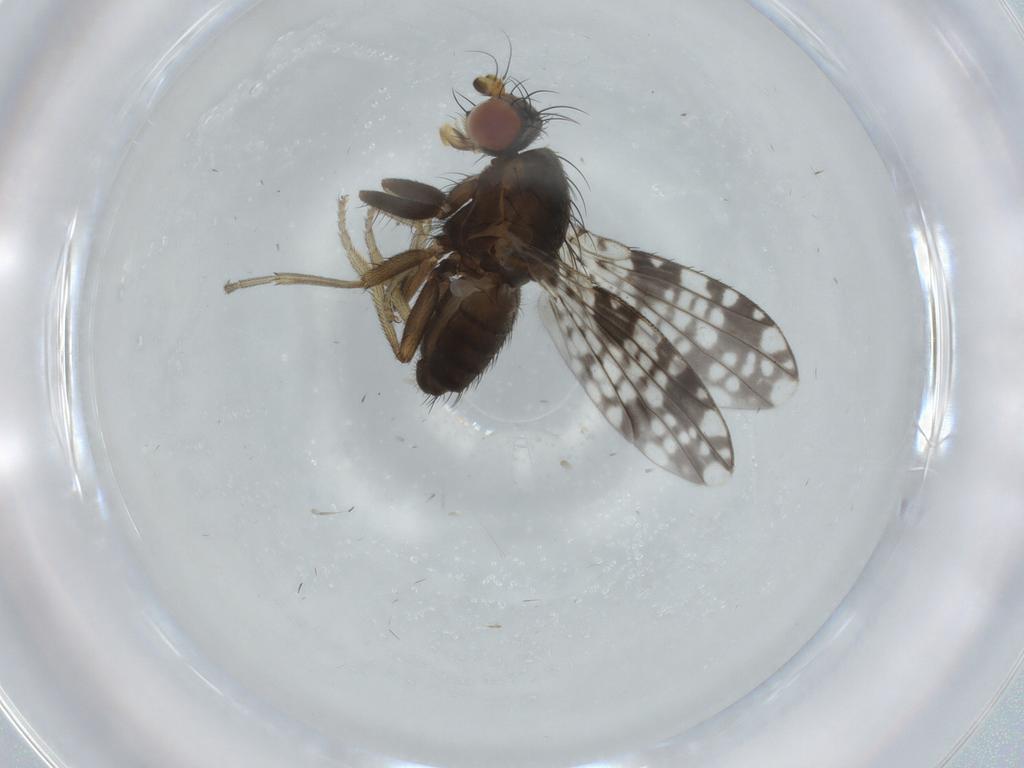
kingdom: Animalia
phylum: Arthropoda
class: Insecta
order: Diptera
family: Tephritidae
